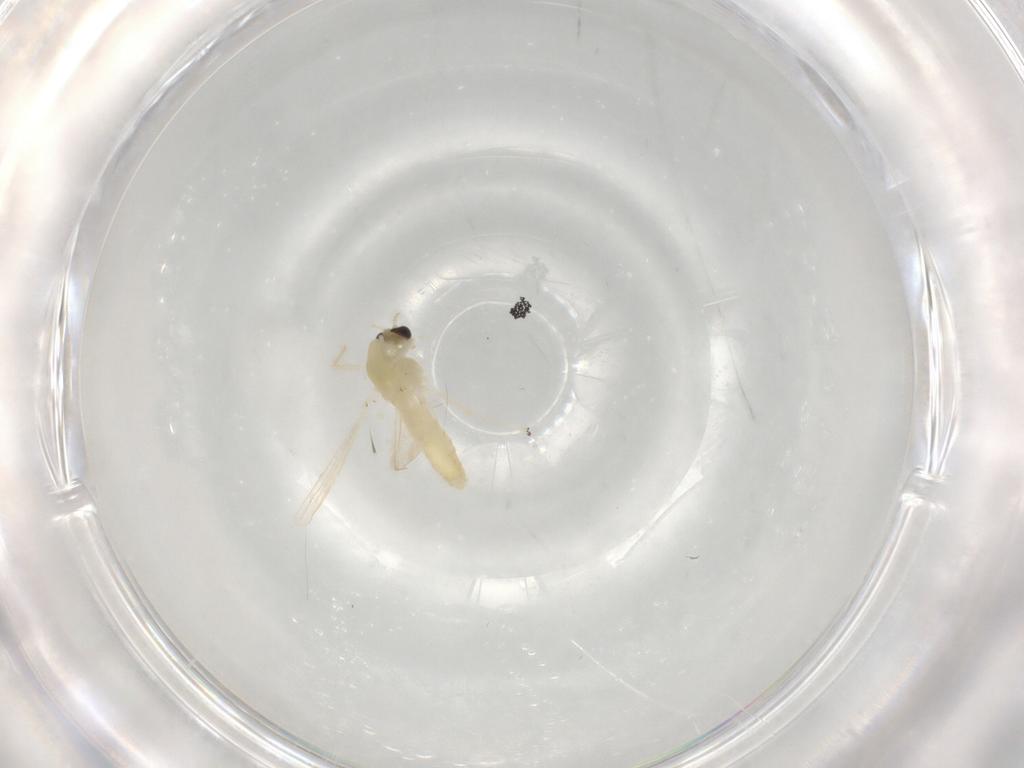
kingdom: Animalia
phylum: Arthropoda
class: Insecta
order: Diptera
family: Chironomidae
